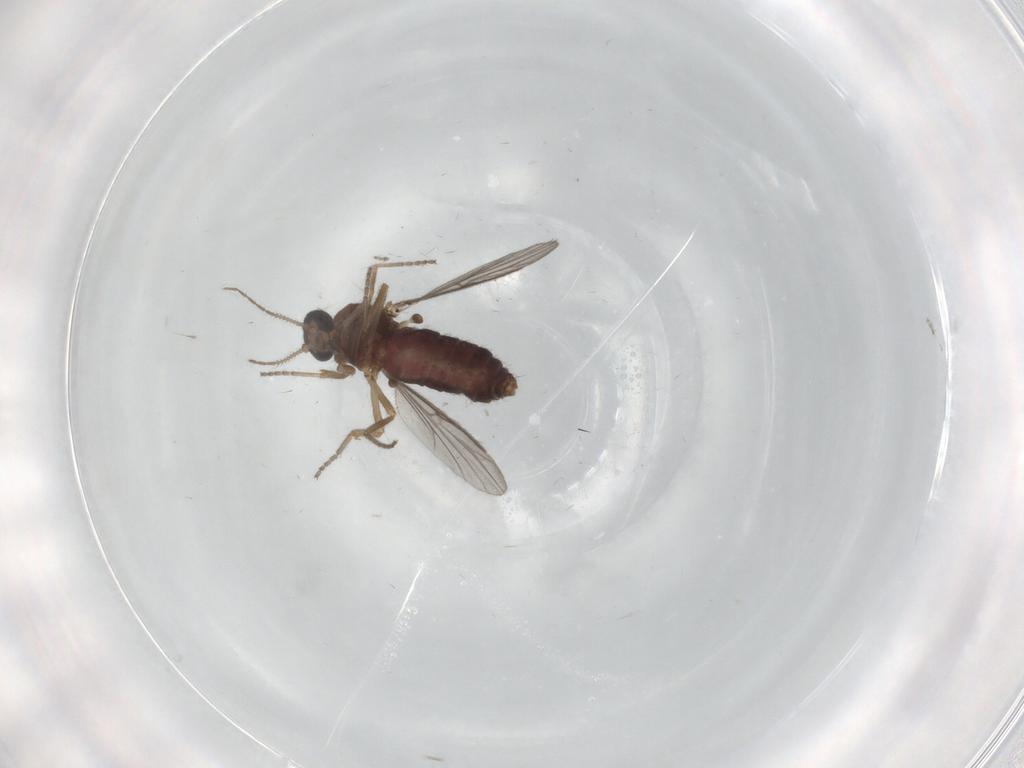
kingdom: Animalia
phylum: Arthropoda
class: Insecta
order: Diptera
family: Ceratopogonidae
